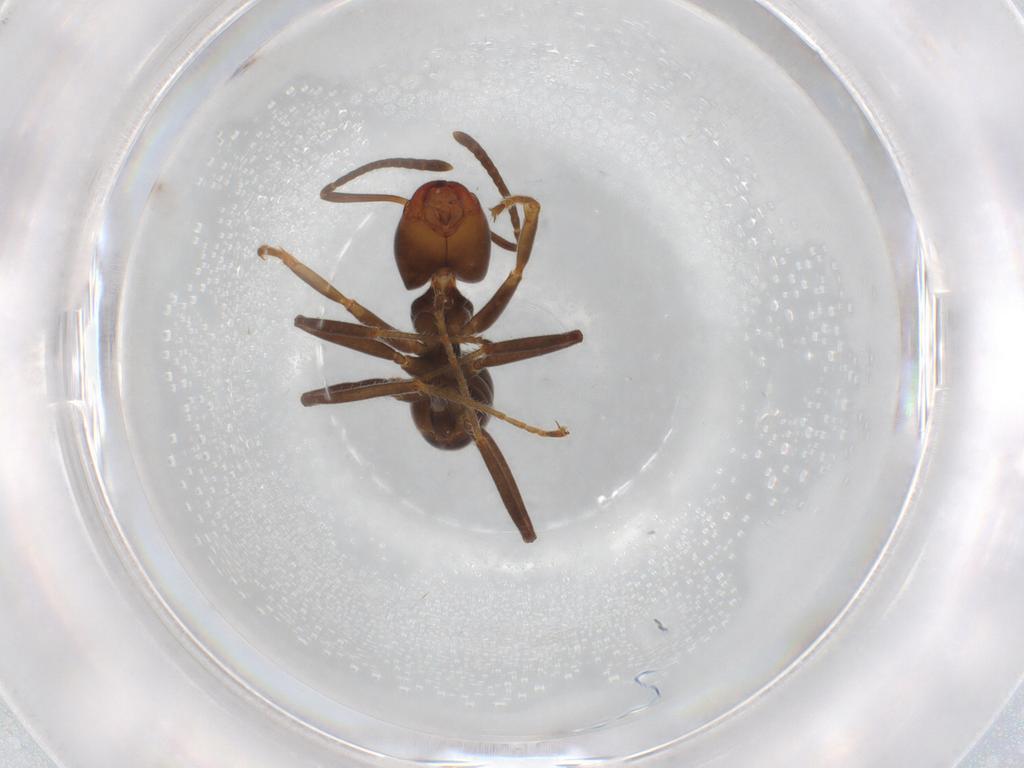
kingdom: Animalia
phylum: Arthropoda
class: Insecta
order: Hymenoptera
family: Formicidae
